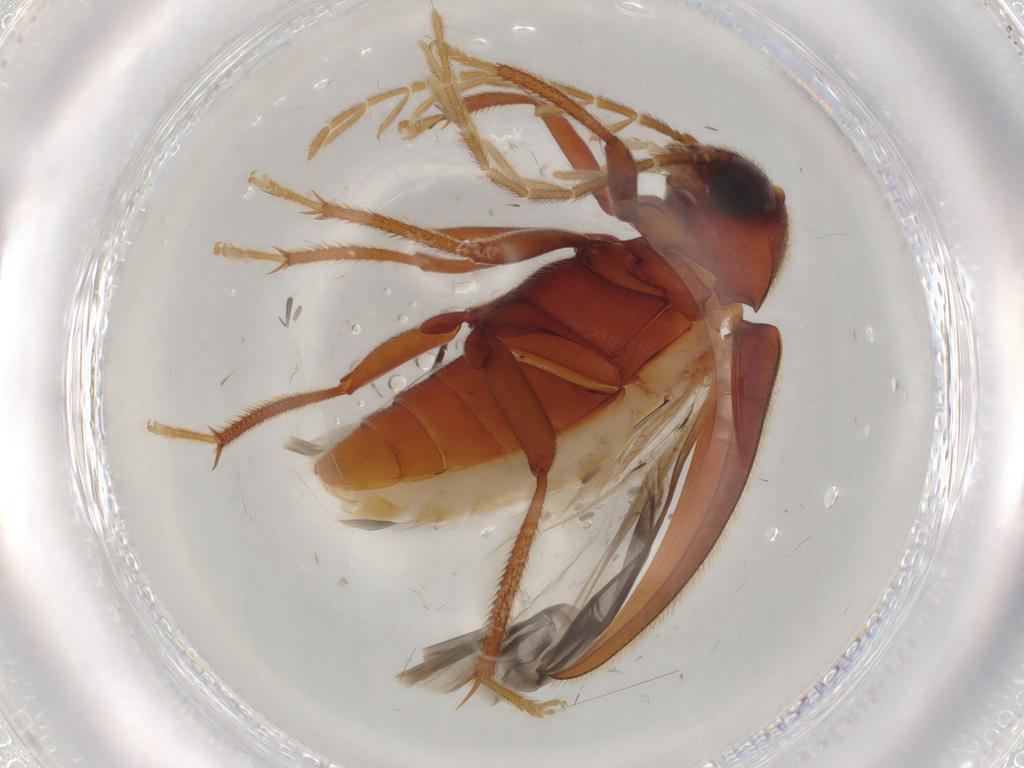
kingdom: Animalia
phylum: Arthropoda
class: Insecta
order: Coleoptera
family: Ptilodactylidae
